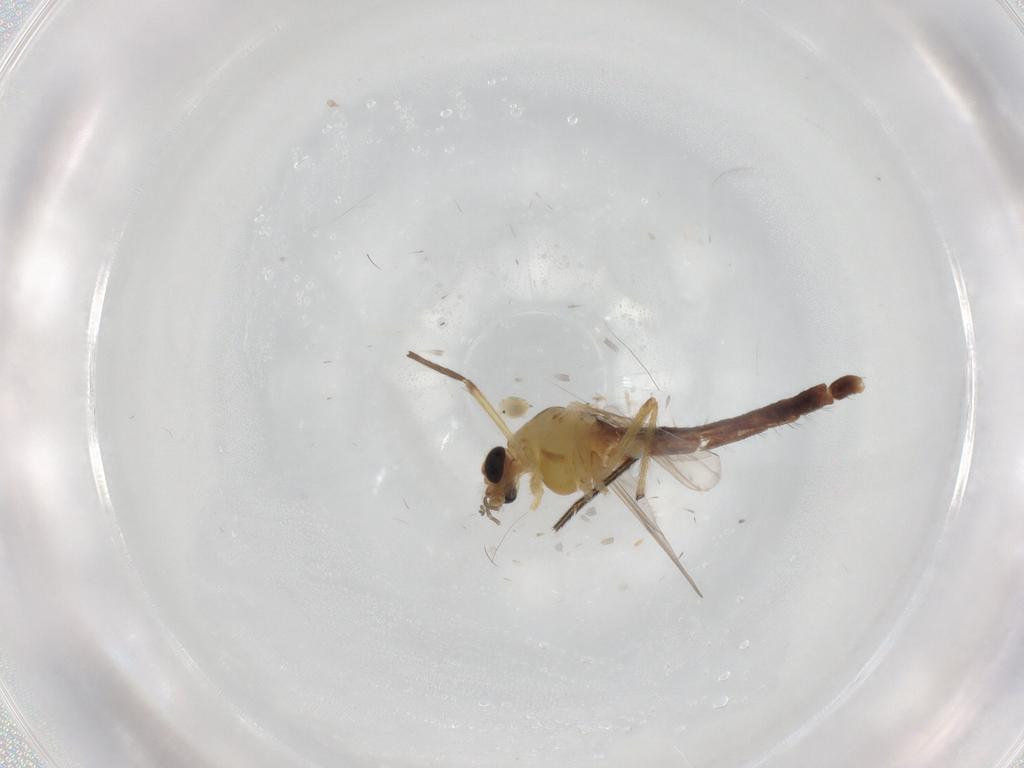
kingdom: Animalia
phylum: Arthropoda
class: Insecta
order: Diptera
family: Chironomidae
